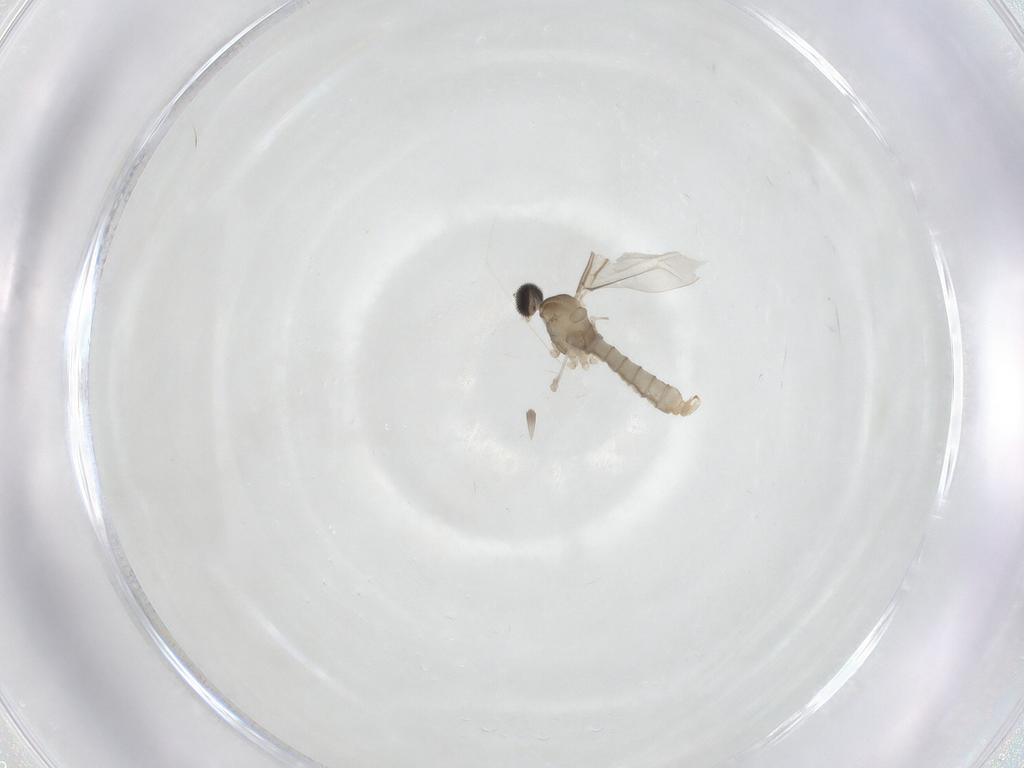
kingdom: Animalia
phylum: Arthropoda
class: Insecta
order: Diptera
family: Cecidomyiidae
